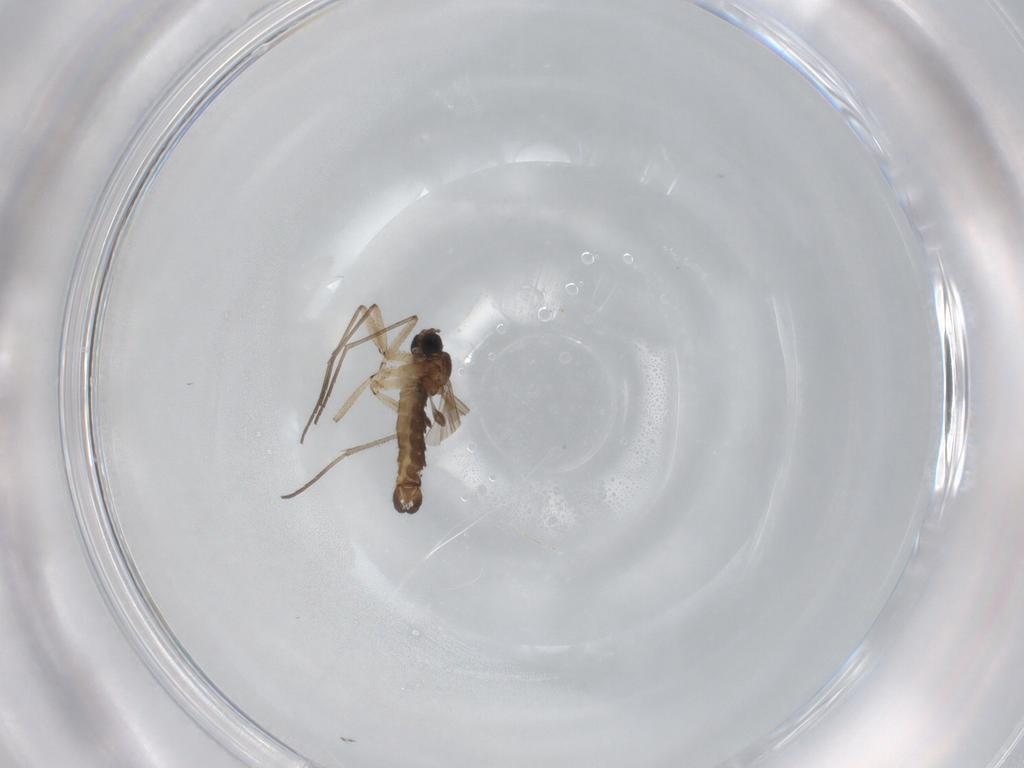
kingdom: Animalia
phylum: Arthropoda
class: Insecta
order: Diptera
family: Sciaridae
